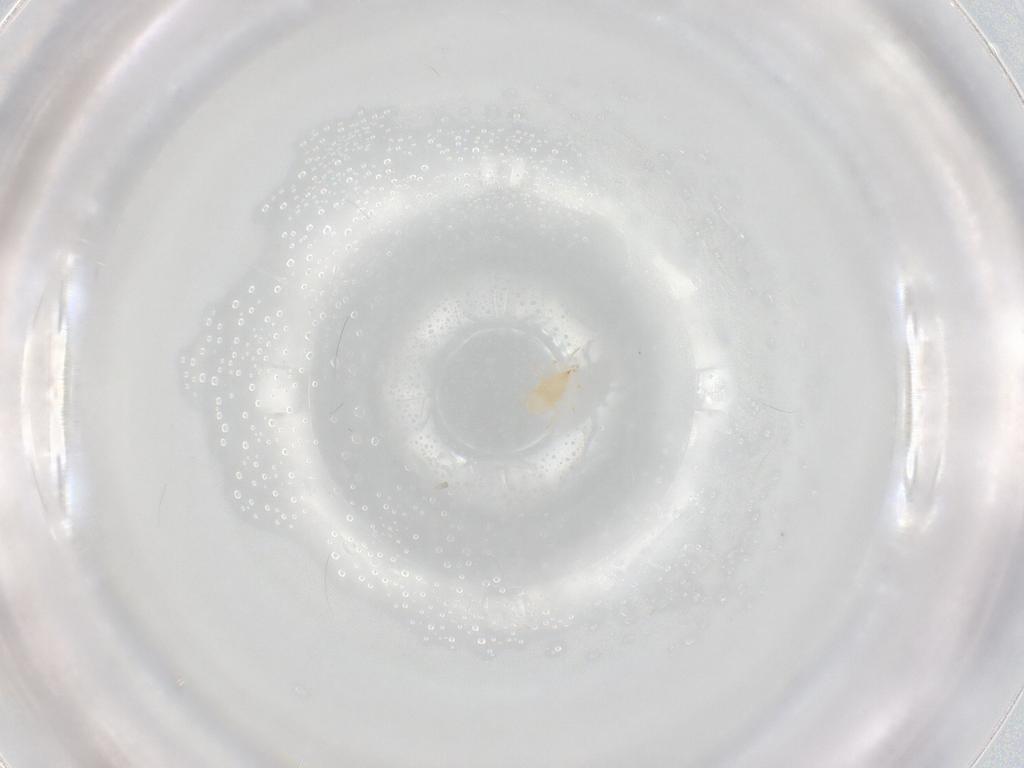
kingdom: Animalia
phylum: Arthropoda
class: Arachnida
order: Mesostigmata
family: Phytoseiidae
